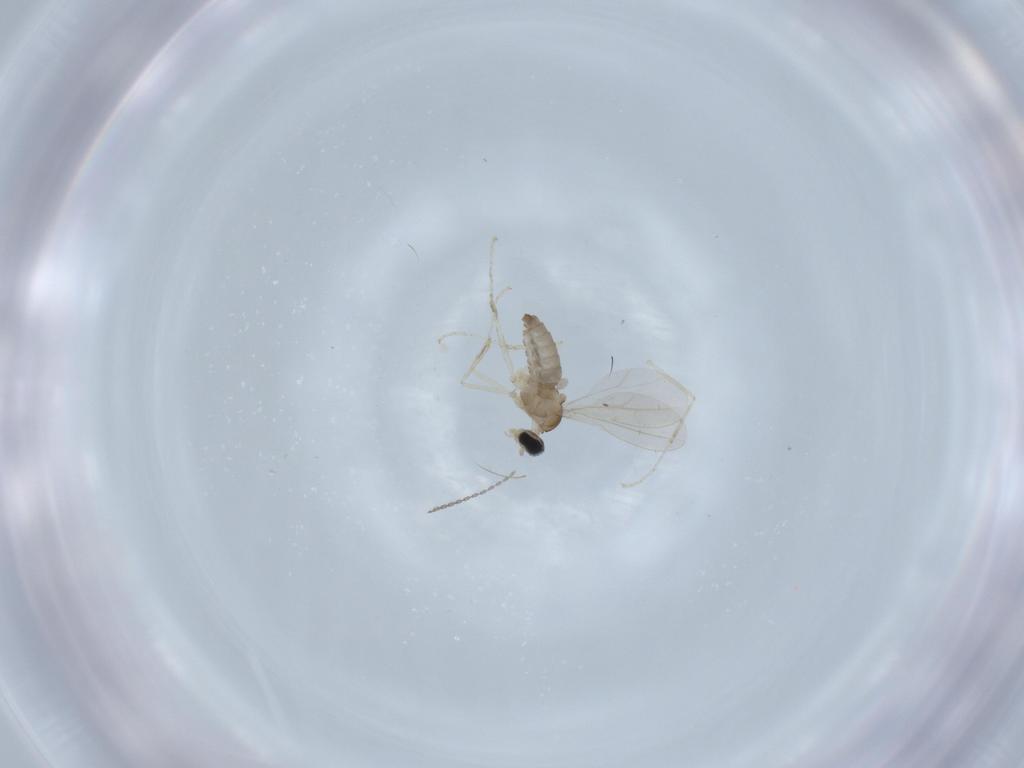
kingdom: Animalia
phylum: Arthropoda
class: Insecta
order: Diptera
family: Cecidomyiidae
